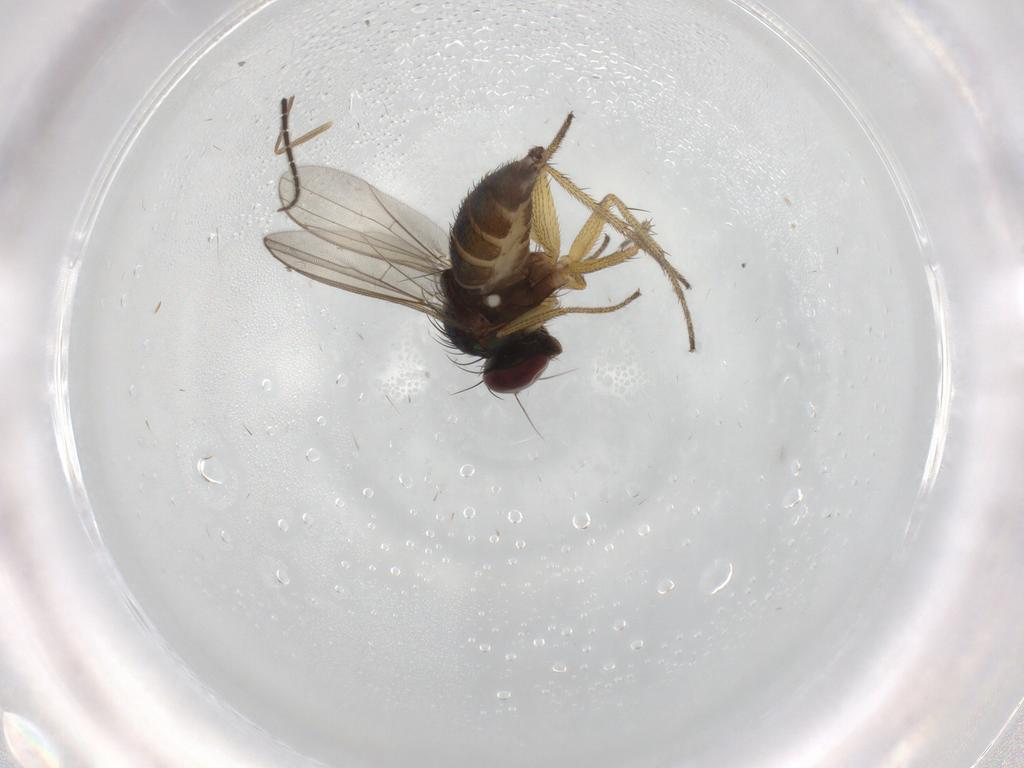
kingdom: Animalia
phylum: Arthropoda
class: Insecta
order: Diptera
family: Sciaridae
